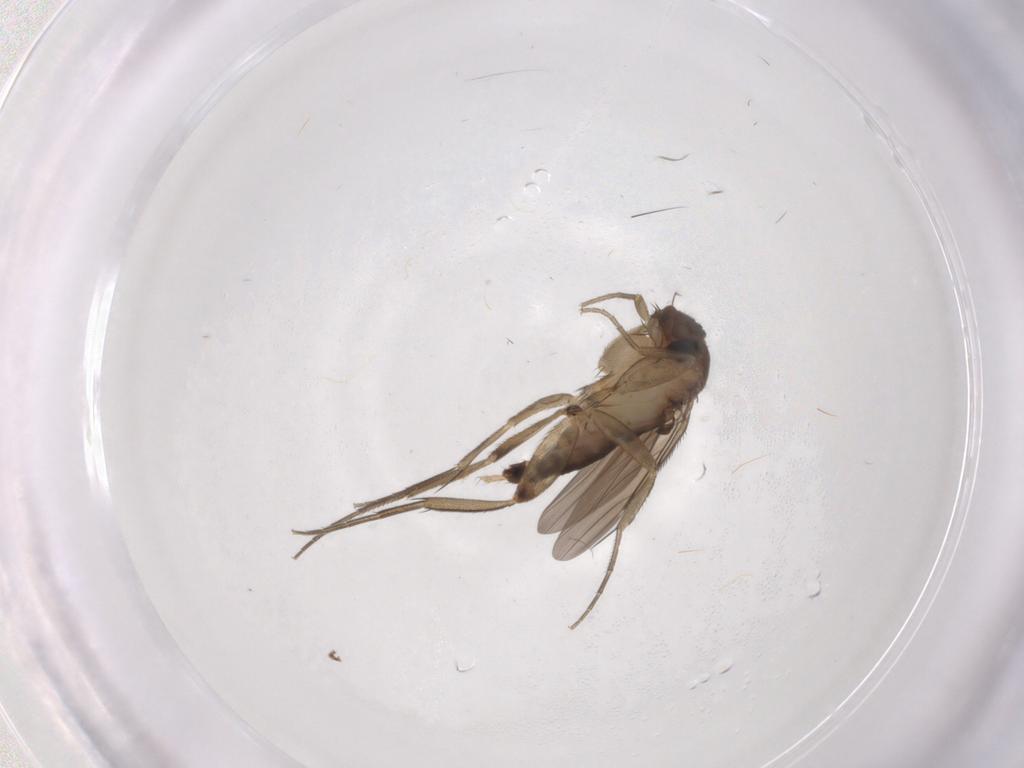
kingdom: Animalia
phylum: Arthropoda
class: Insecta
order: Diptera
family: Phoridae
